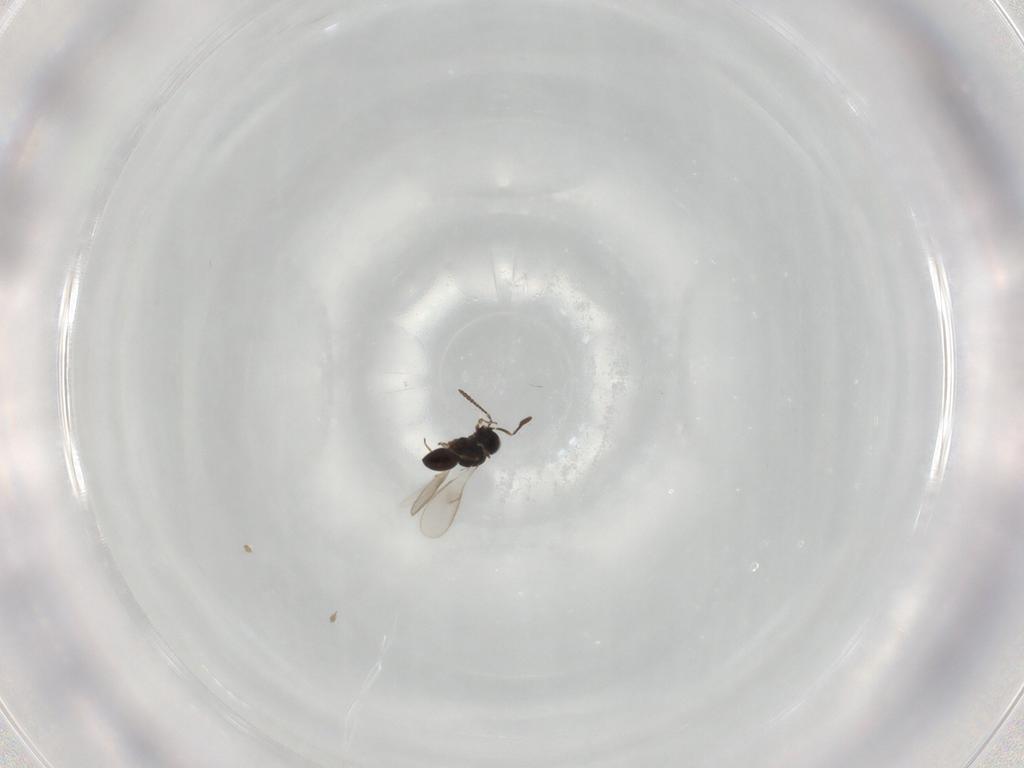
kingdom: Animalia
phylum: Arthropoda
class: Insecta
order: Hymenoptera
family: Scelionidae
